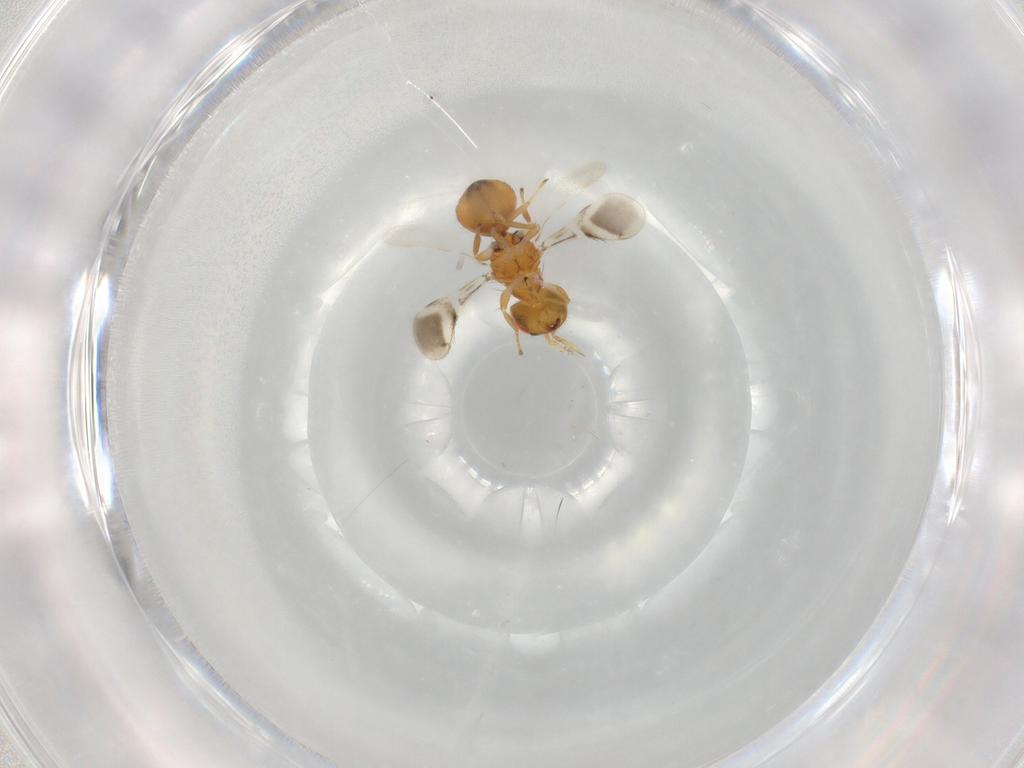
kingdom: Animalia
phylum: Arthropoda
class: Insecta
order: Hymenoptera
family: Eulophidae
